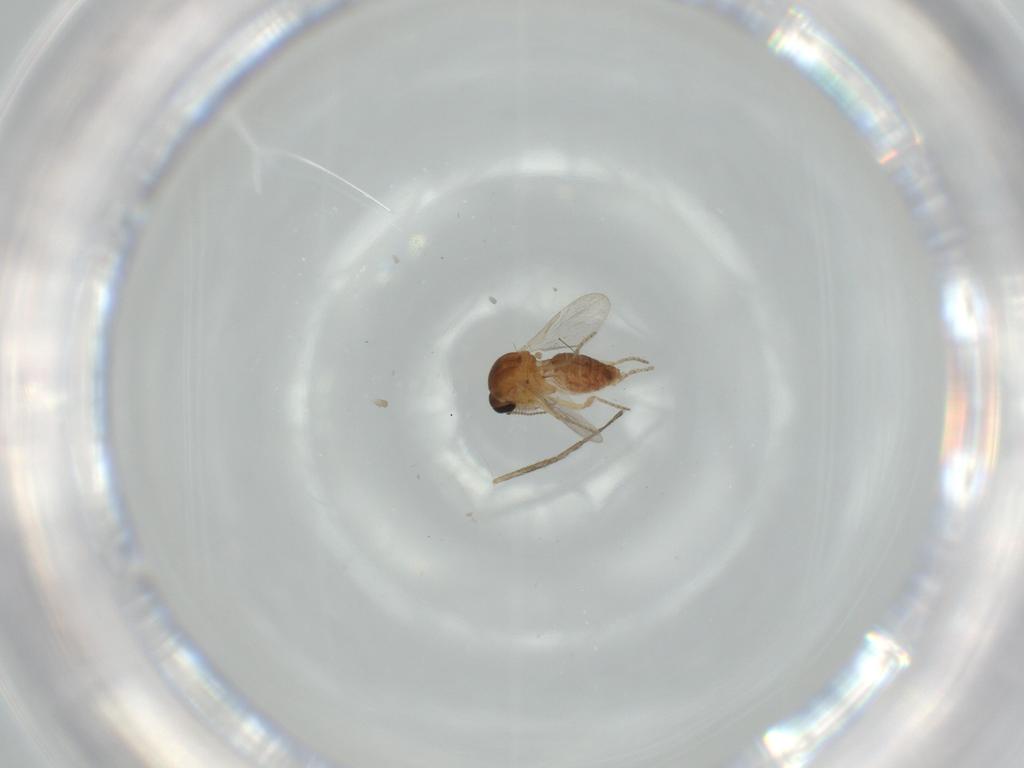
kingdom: Animalia
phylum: Arthropoda
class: Insecta
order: Diptera
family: Ceratopogonidae
